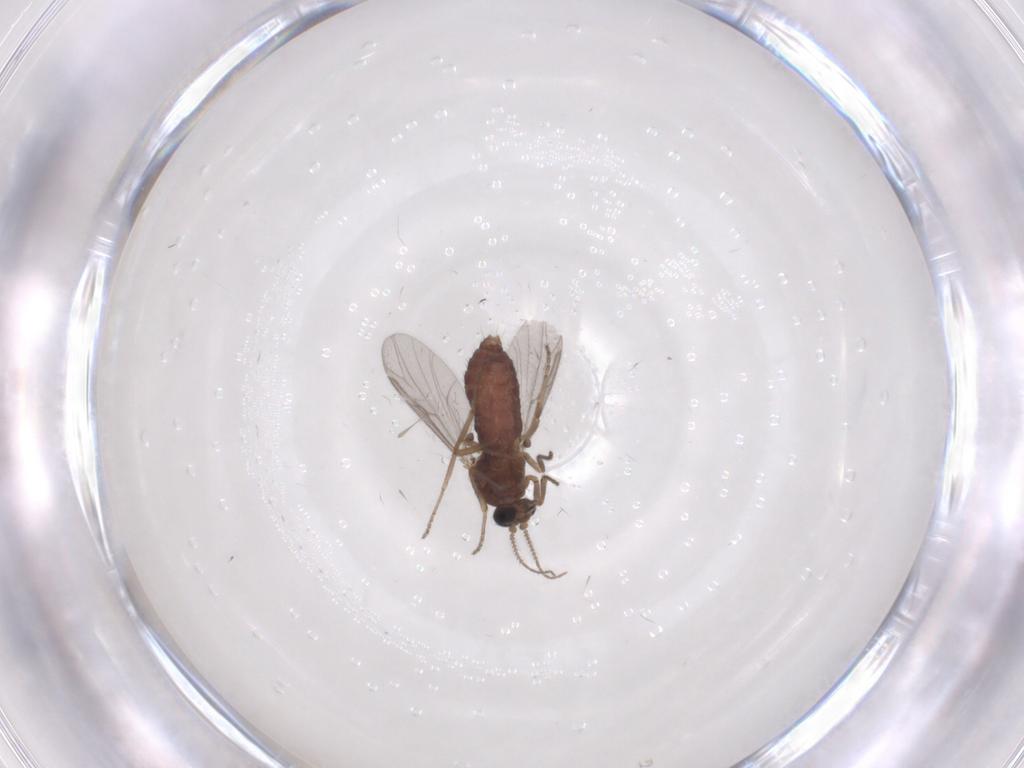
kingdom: Animalia
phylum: Arthropoda
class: Insecta
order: Diptera
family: Ceratopogonidae
